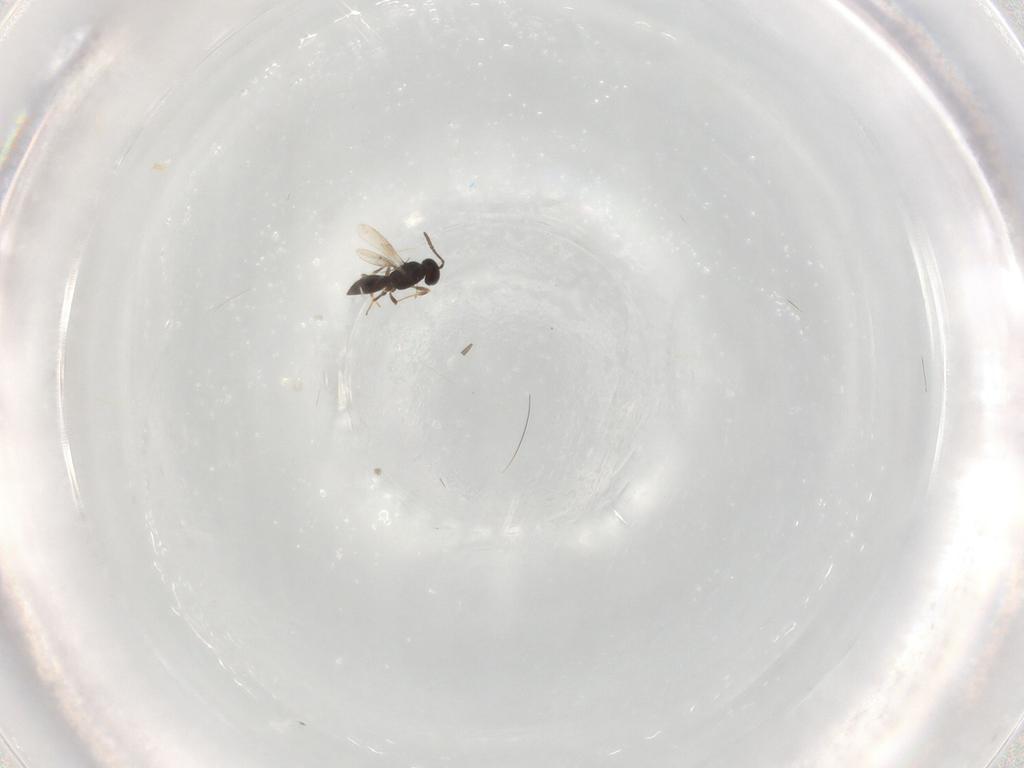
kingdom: Animalia
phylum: Arthropoda
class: Insecta
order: Hymenoptera
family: Scelionidae
